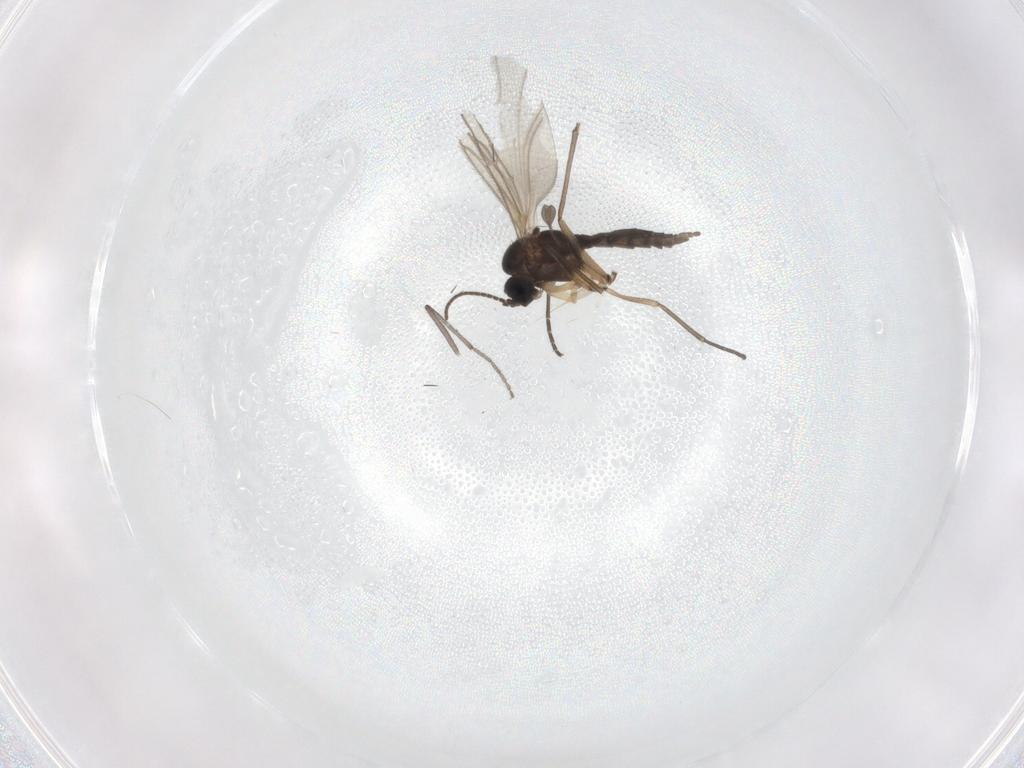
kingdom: Animalia
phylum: Arthropoda
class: Insecta
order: Diptera
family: Sciaridae
